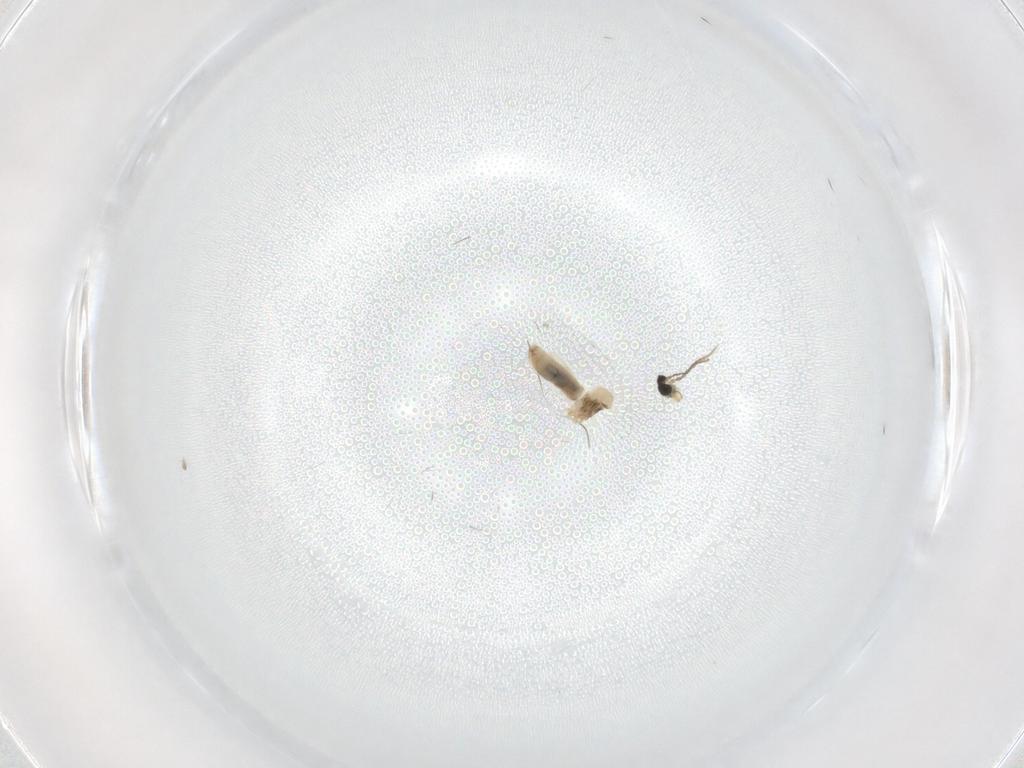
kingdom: Animalia
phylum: Arthropoda
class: Insecta
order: Diptera
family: Cecidomyiidae
